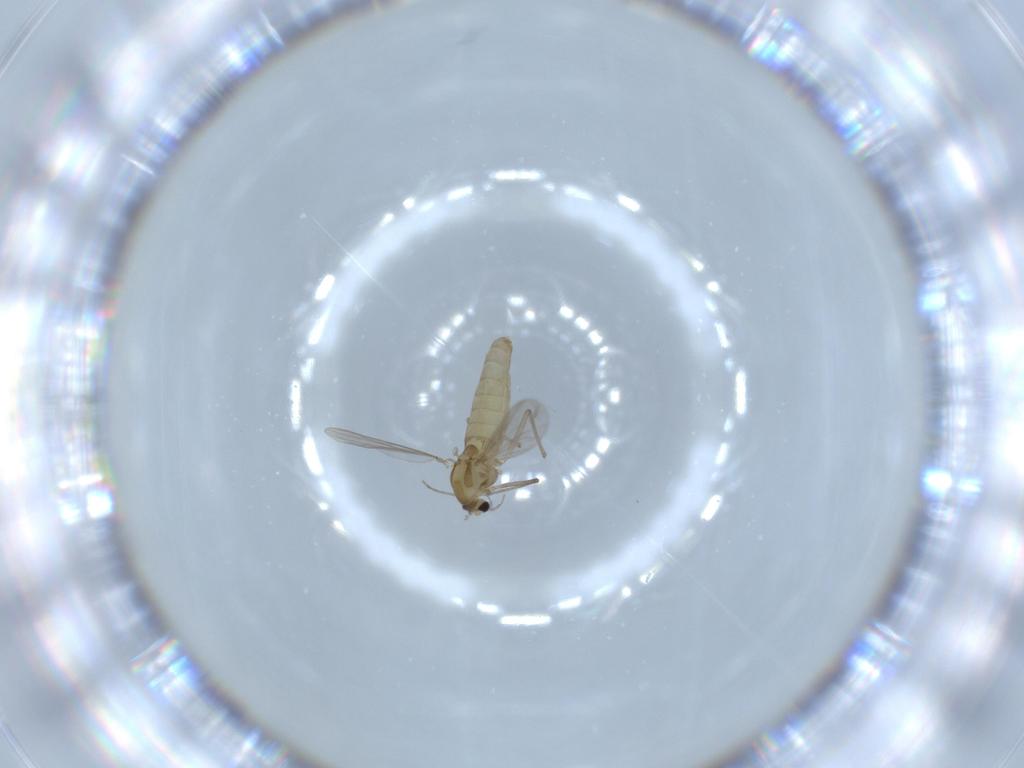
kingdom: Animalia
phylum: Arthropoda
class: Insecta
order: Diptera
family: Chironomidae
